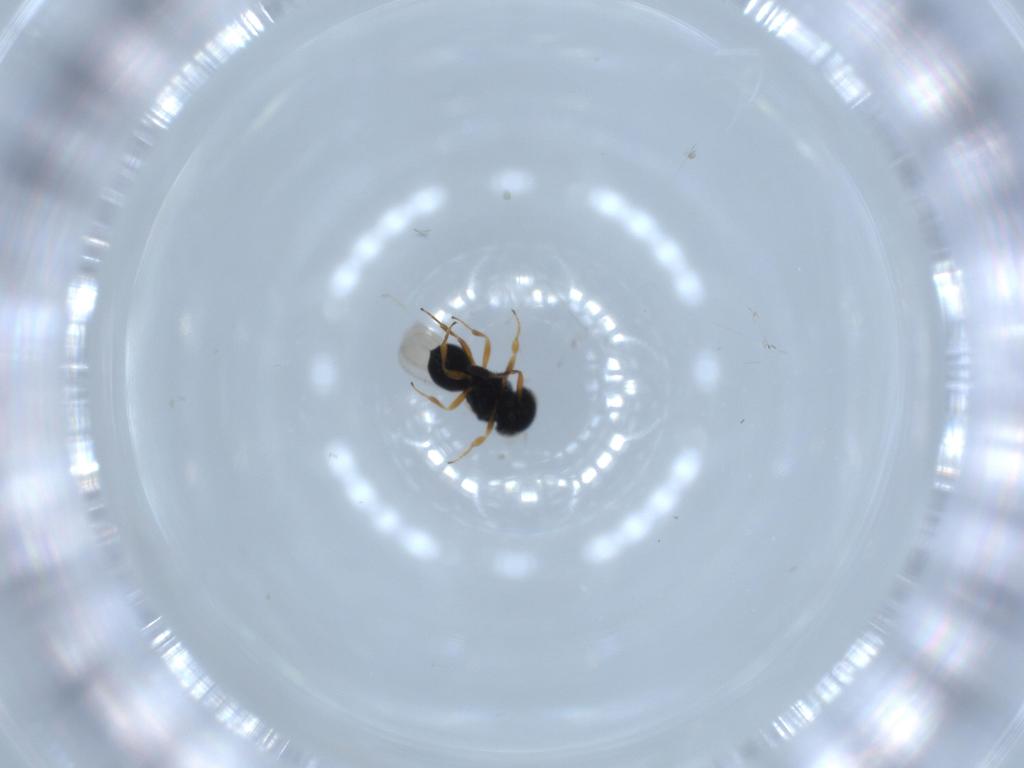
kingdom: Animalia
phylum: Arthropoda
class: Insecta
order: Hymenoptera
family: Scelionidae
